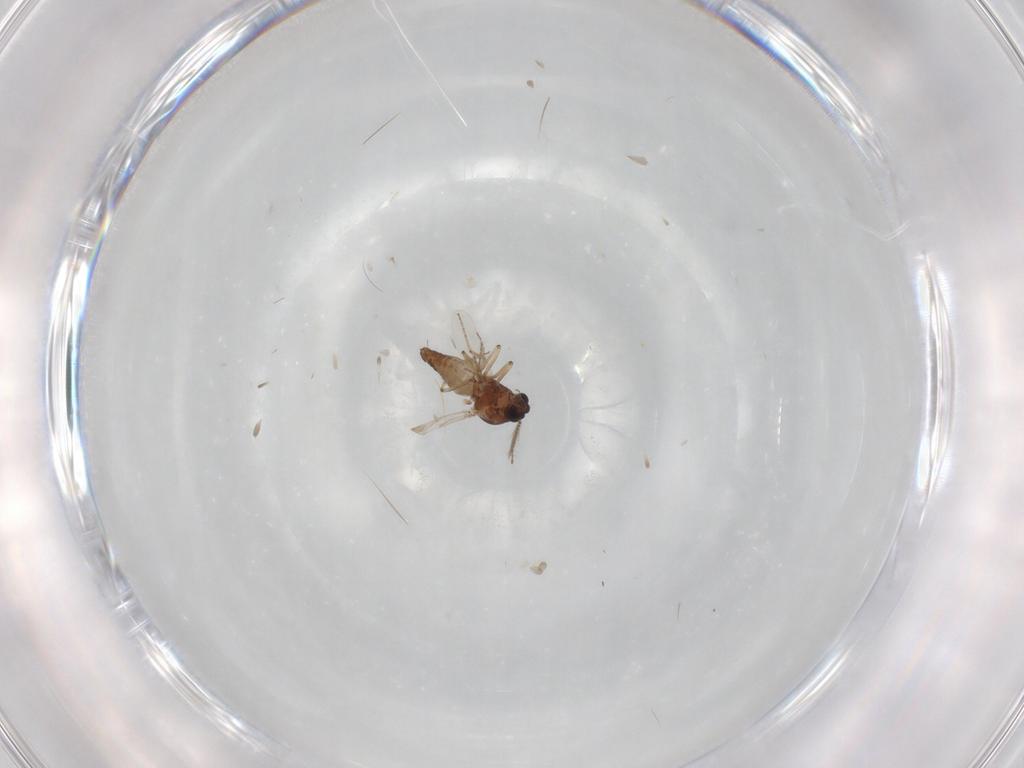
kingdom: Animalia
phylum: Arthropoda
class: Insecta
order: Diptera
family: Ceratopogonidae
